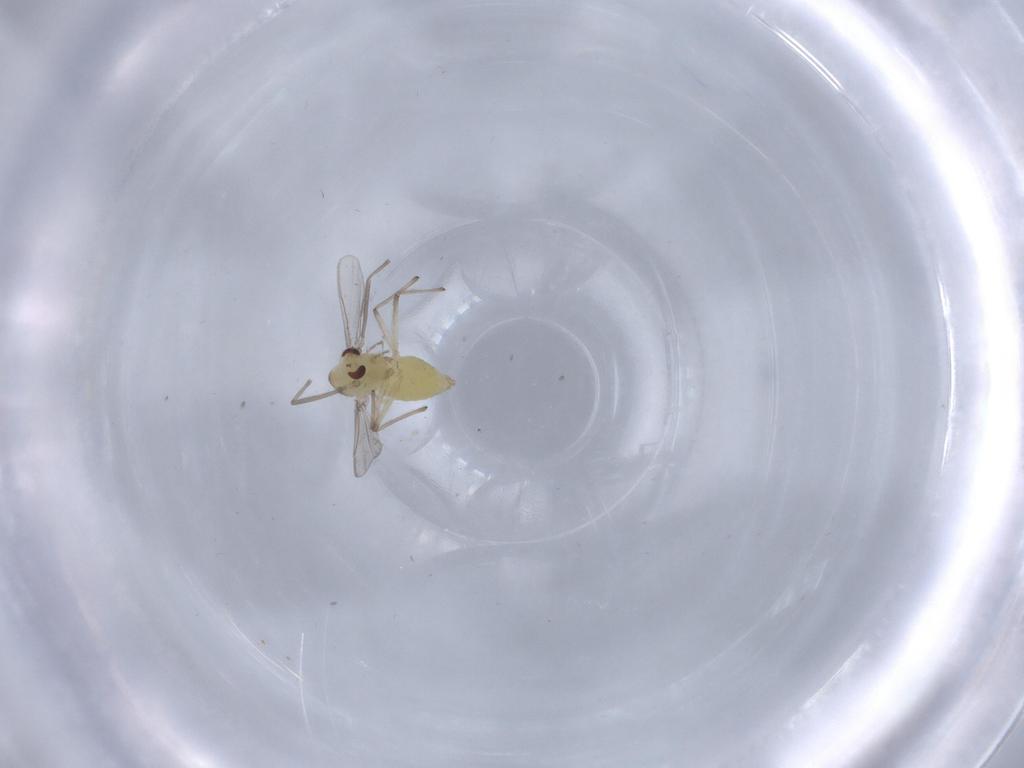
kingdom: Animalia
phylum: Arthropoda
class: Insecta
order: Diptera
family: Chironomidae
